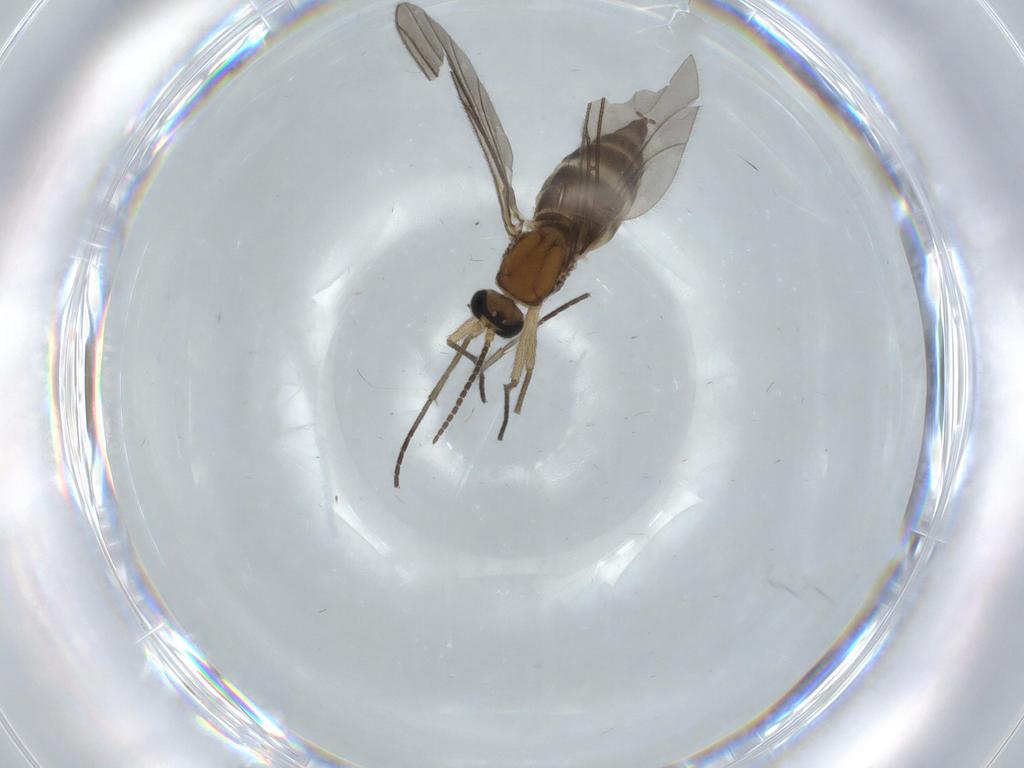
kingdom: Animalia
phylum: Arthropoda
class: Insecta
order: Diptera
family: Sciaridae
